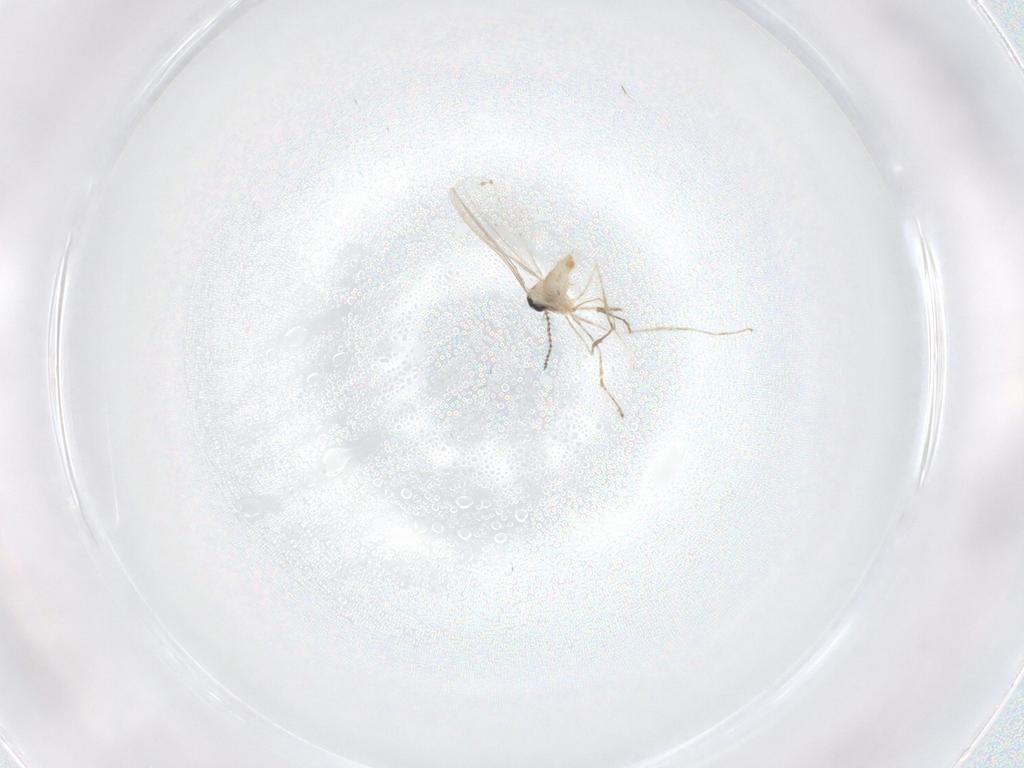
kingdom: Animalia
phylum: Arthropoda
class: Insecta
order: Diptera
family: Cecidomyiidae
